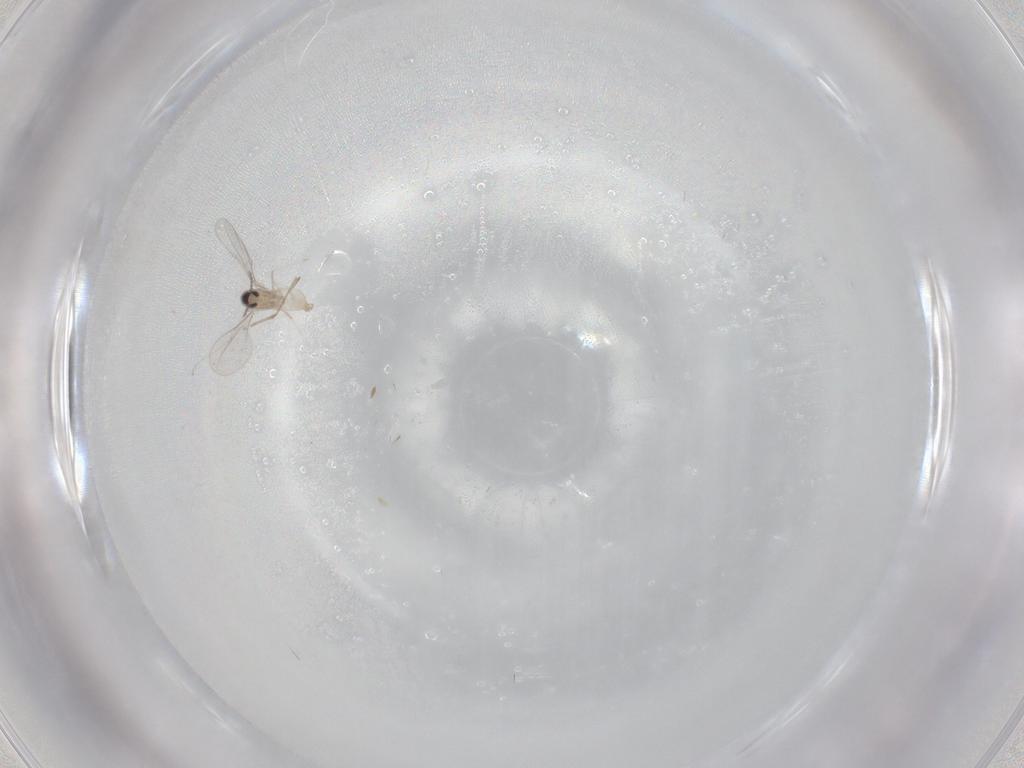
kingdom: Animalia
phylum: Arthropoda
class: Insecta
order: Diptera
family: Cecidomyiidae
